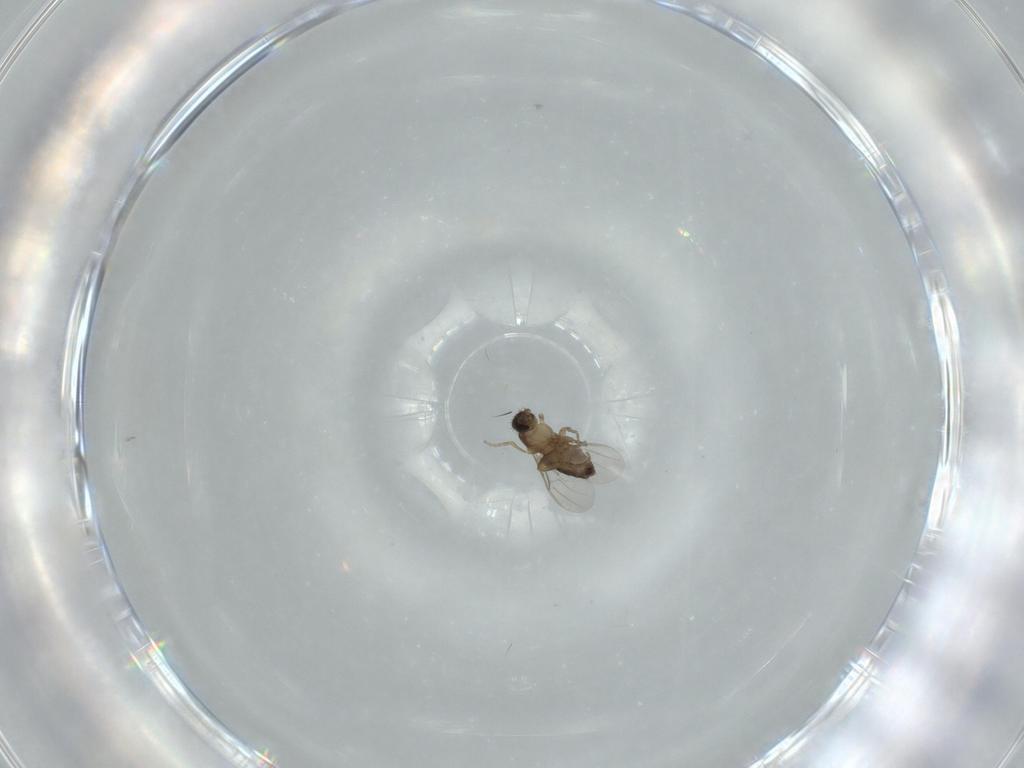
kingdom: Animalia
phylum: Arthropoda
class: Insecta
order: Diptera
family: Phoridae
